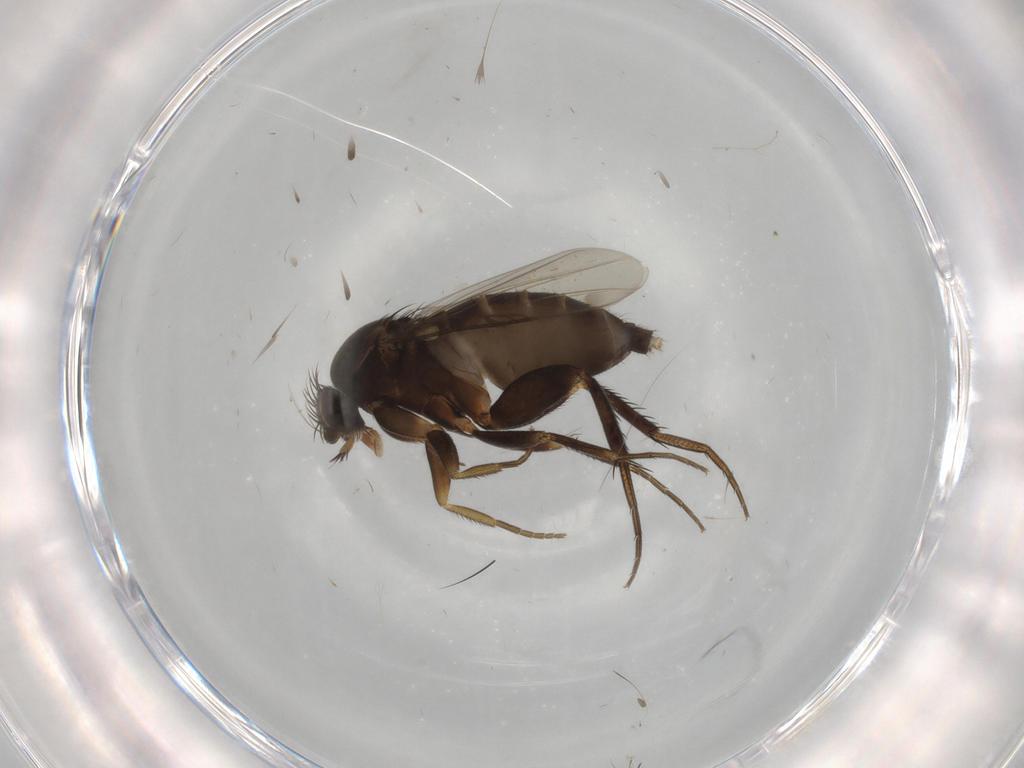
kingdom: Animalia
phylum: Arthropoda
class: Insecta
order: Diptera
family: Phoridae
